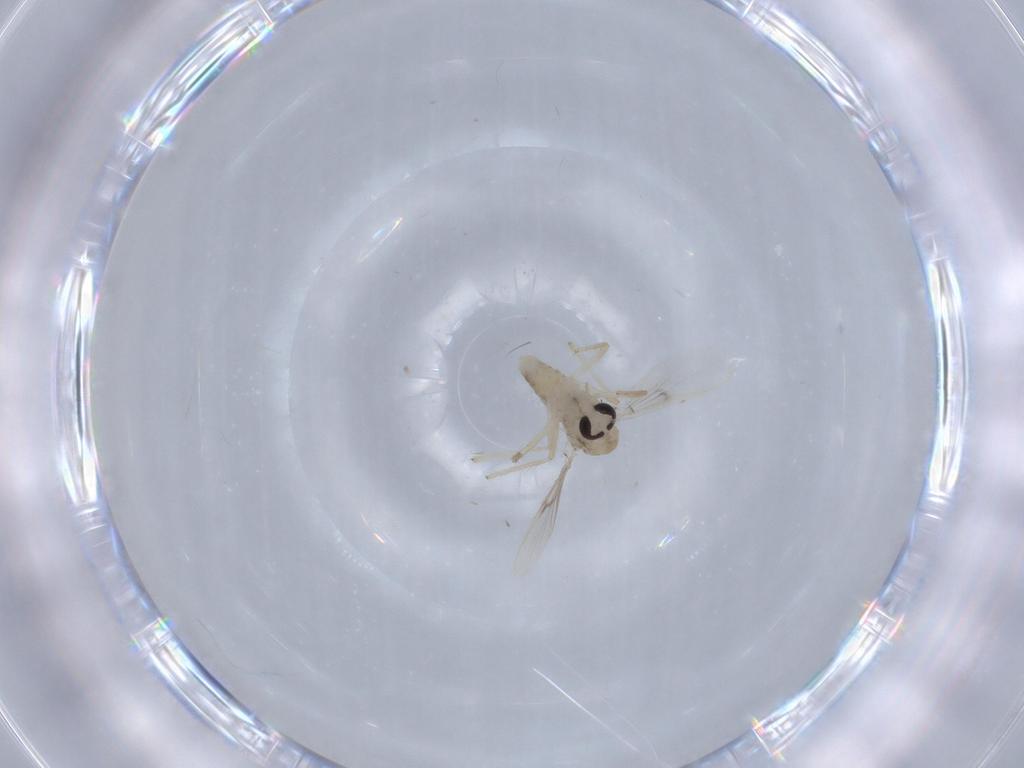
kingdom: Animalia
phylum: Arthropoda
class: Insecta
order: Diptera
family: Chironomidae
